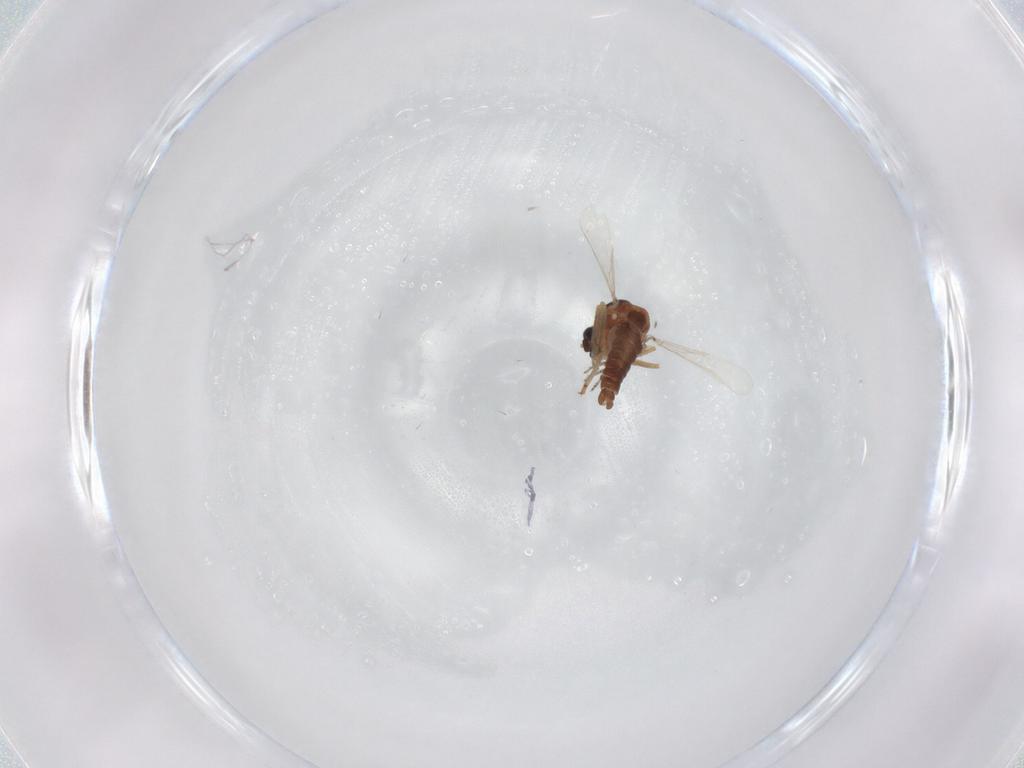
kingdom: Animalia
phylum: Arthropoda
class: Insecta
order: Diptera
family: Ceratopogonidae
